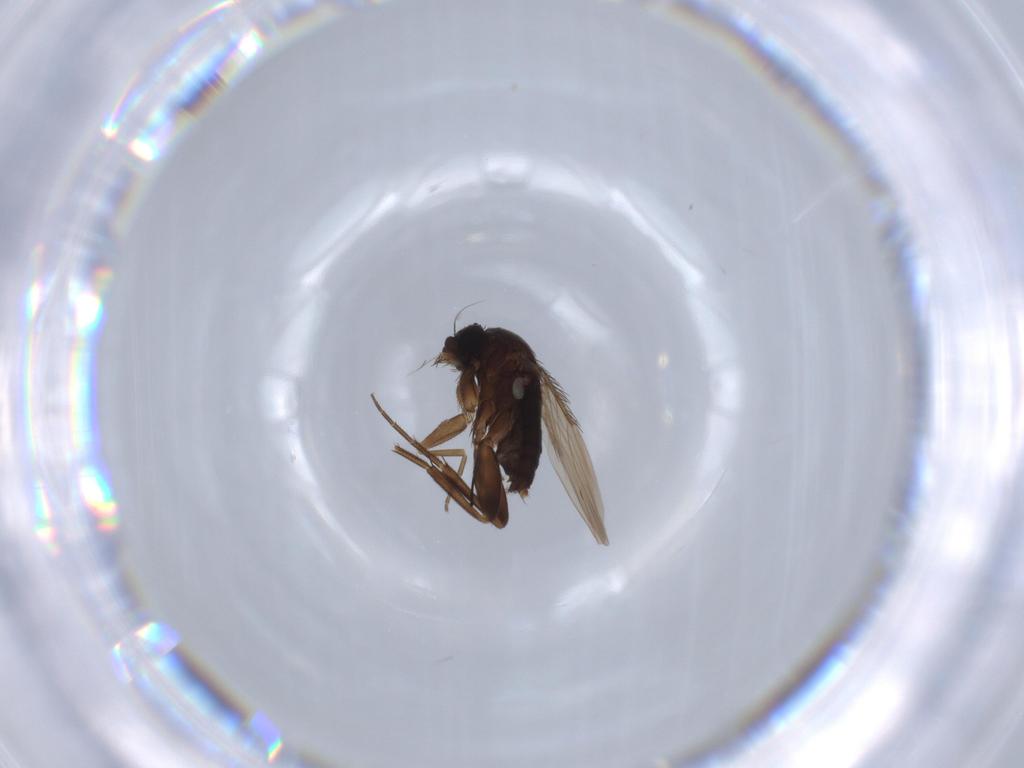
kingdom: Animalia
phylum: Arthropoda
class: Insecta
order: Diptera
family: Phoridae
